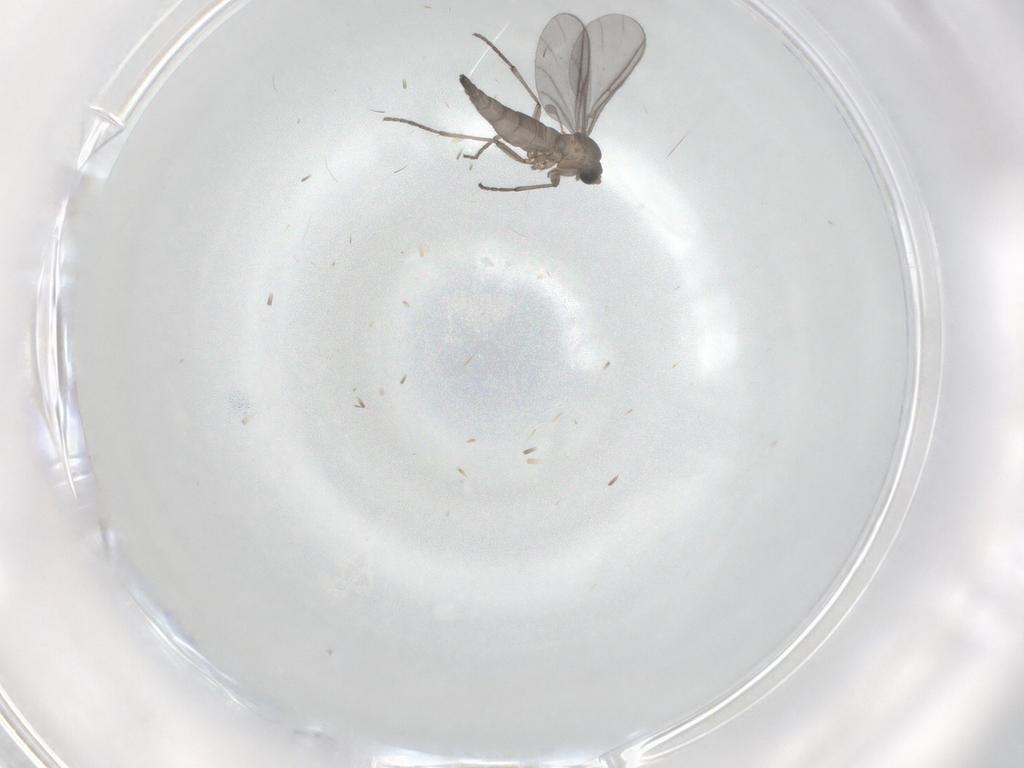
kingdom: Animalia
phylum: Arthropoda
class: Insecta
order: Diptera
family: Sciaridae
